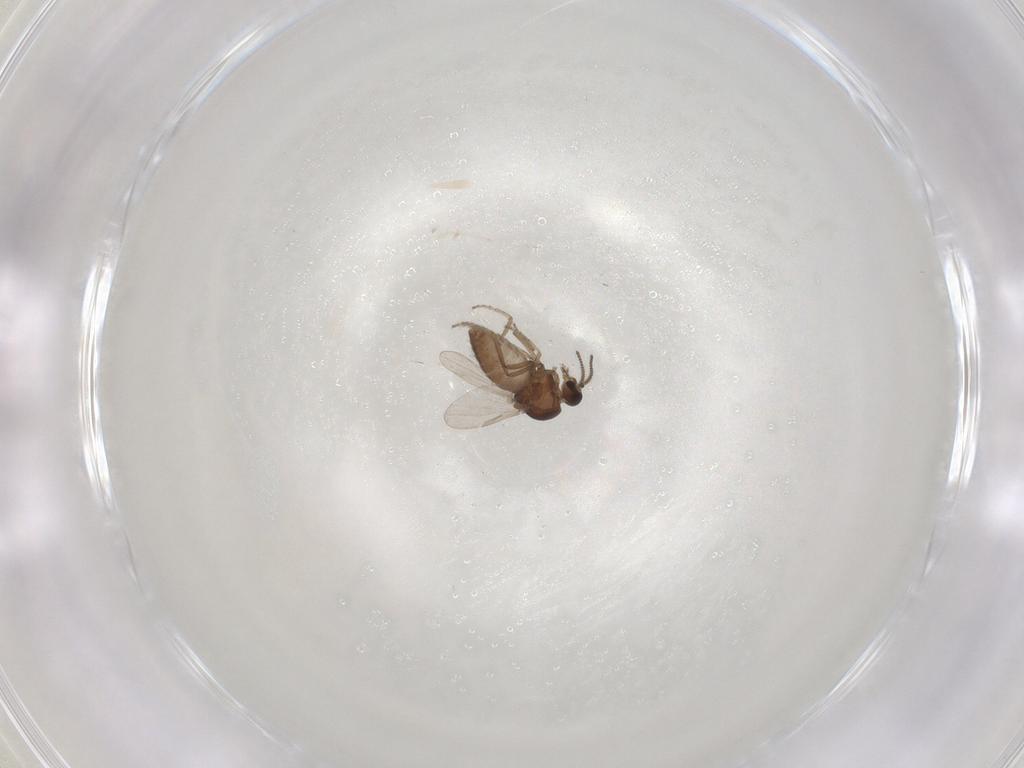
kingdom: Animalia
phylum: Arthropoda
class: Insecta
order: Diptera
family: Ceratopogonidae
